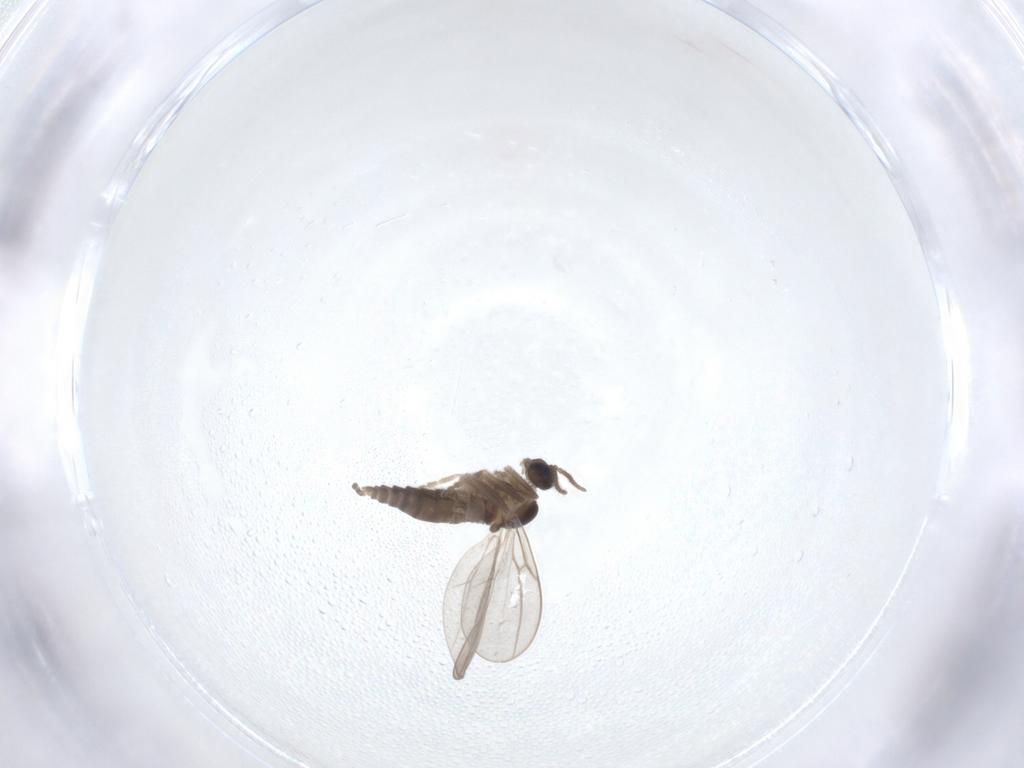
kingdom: Animalia
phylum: Arthropoda
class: Insecta
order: Diptera
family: Cecidomyiidae
